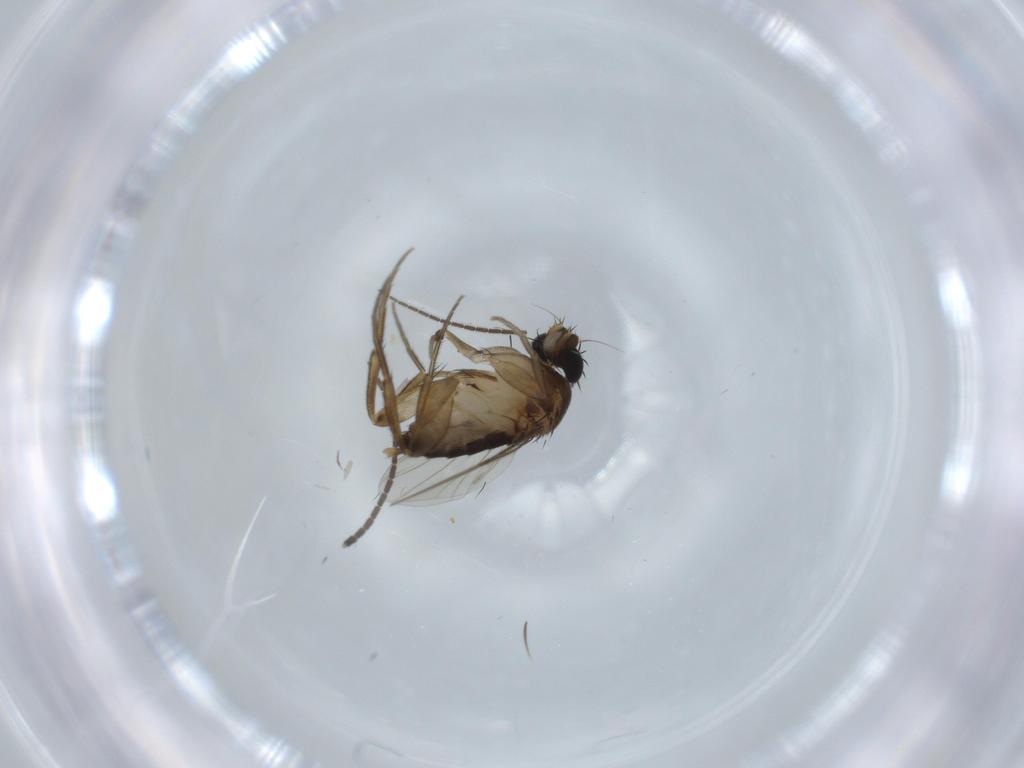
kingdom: Animalia
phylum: Arthropoda
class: Insecta
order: Diptera
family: Sciaridae
